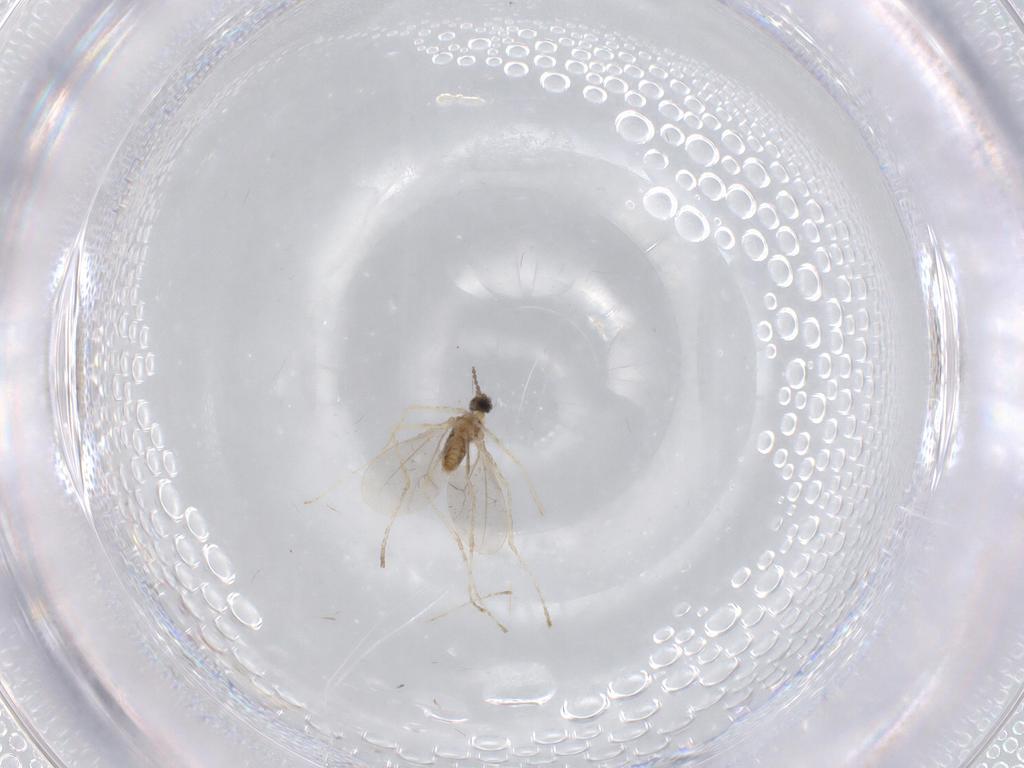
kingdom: Animalia
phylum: Arthropoda
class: Insecta
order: Diptera
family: Cecidomyiidae
